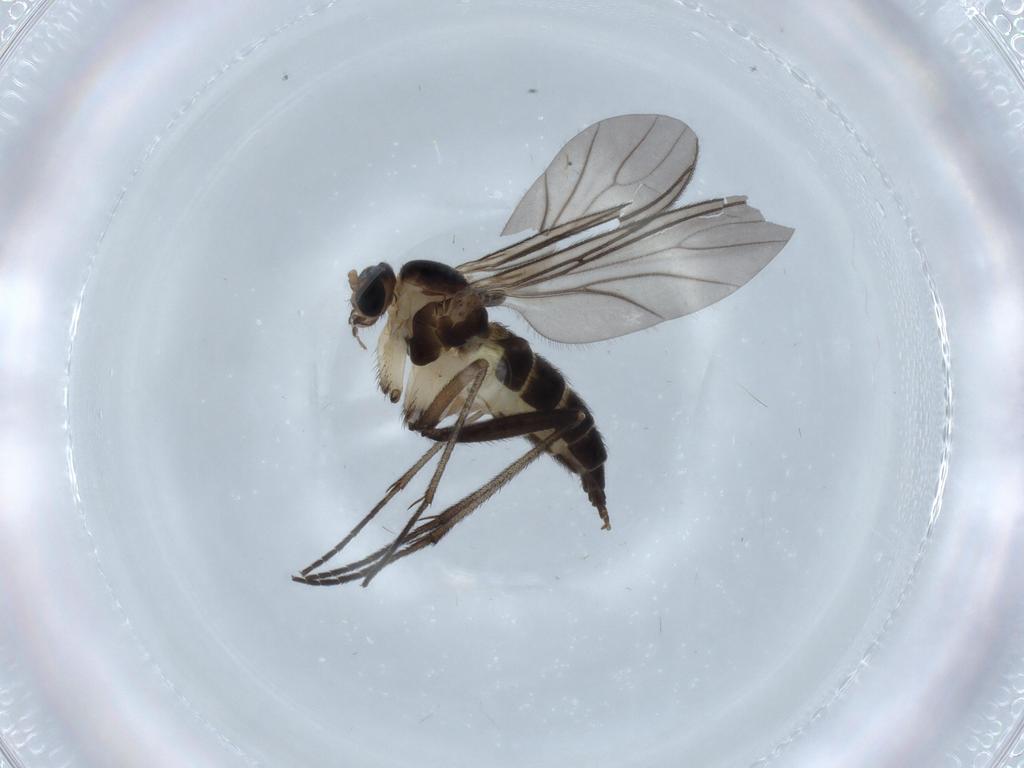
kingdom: Animalia
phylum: Arthropoda
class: Insecta
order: Diptera
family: Sciaridae
